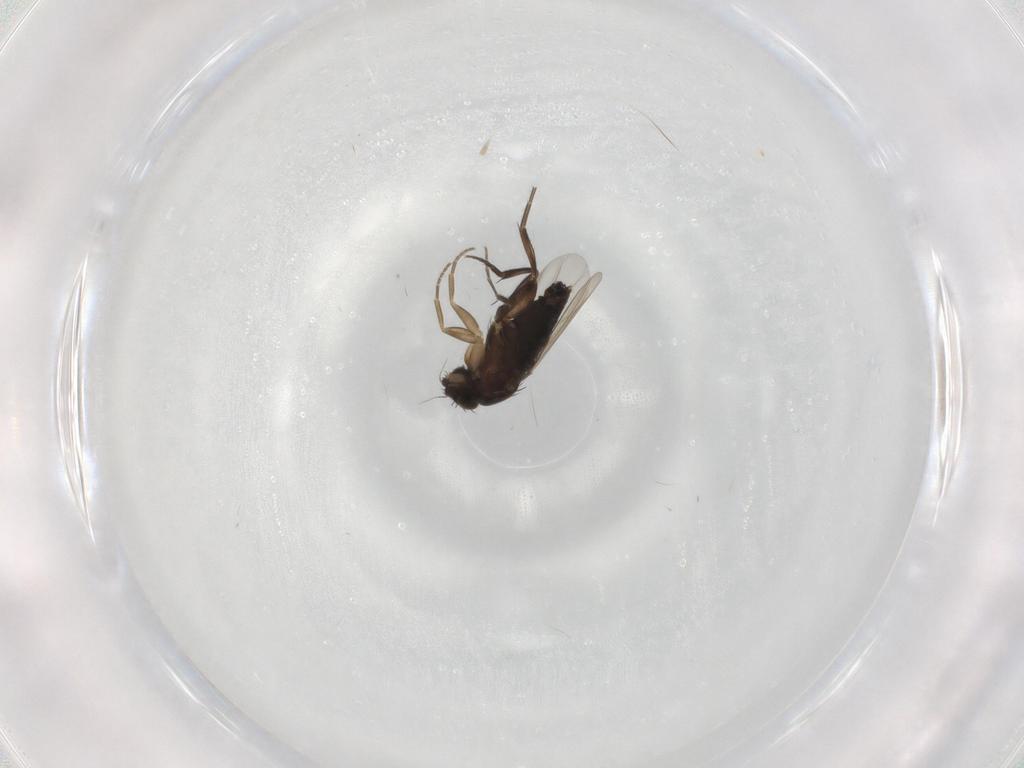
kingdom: Animalia
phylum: Arthropoda
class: Insecta
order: Diptera
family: Phoridae
